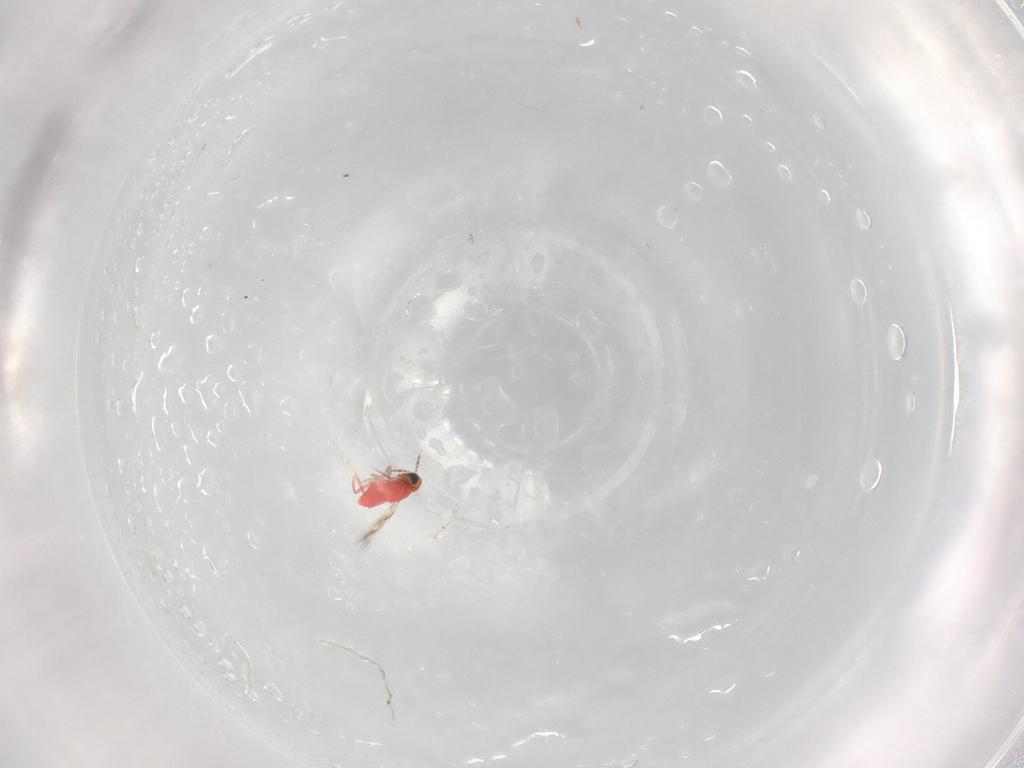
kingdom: Animalia
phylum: Arthropoda
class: Insecta
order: Hymenoptera
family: Trichogrammatidae
